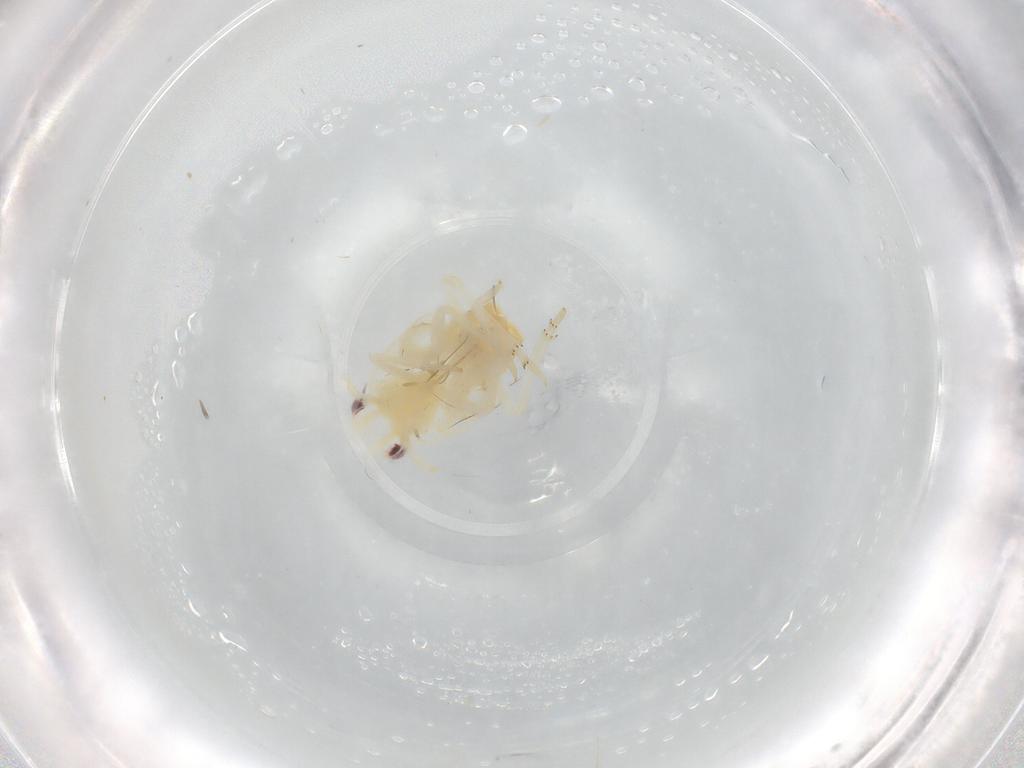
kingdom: Animalia
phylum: Arthropoda
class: Insecta
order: Hemiptera
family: Flatidae
